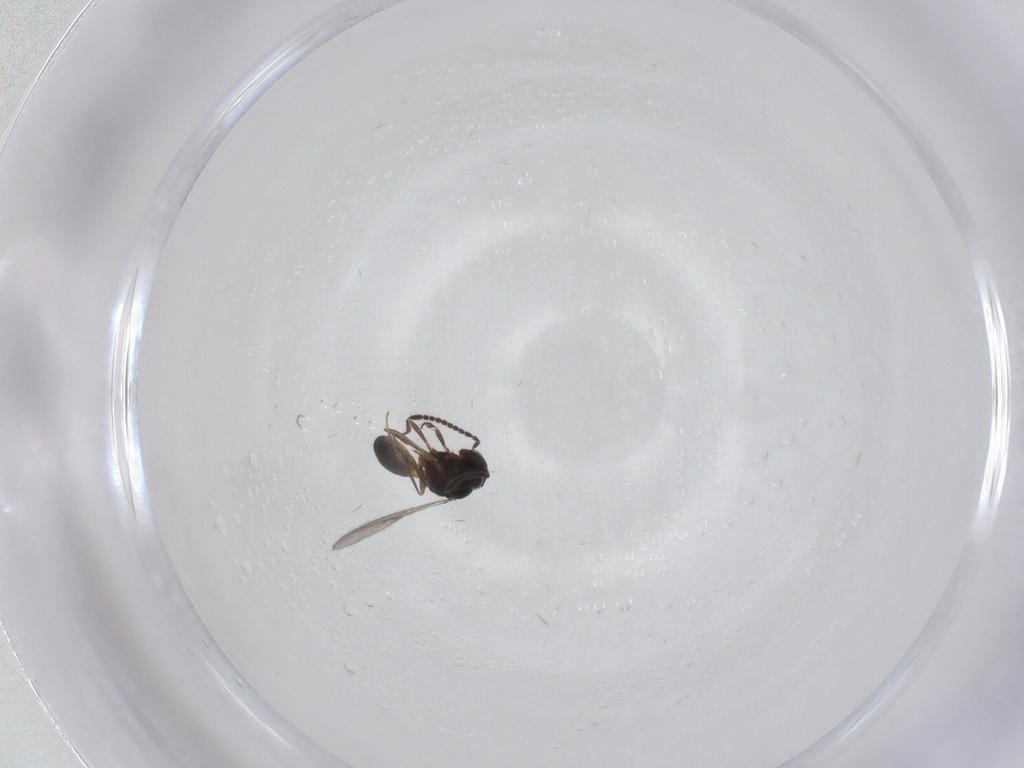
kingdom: Animalia
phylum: Arthropoda
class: Insecta
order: Hymenoptera
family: Scelionidae
